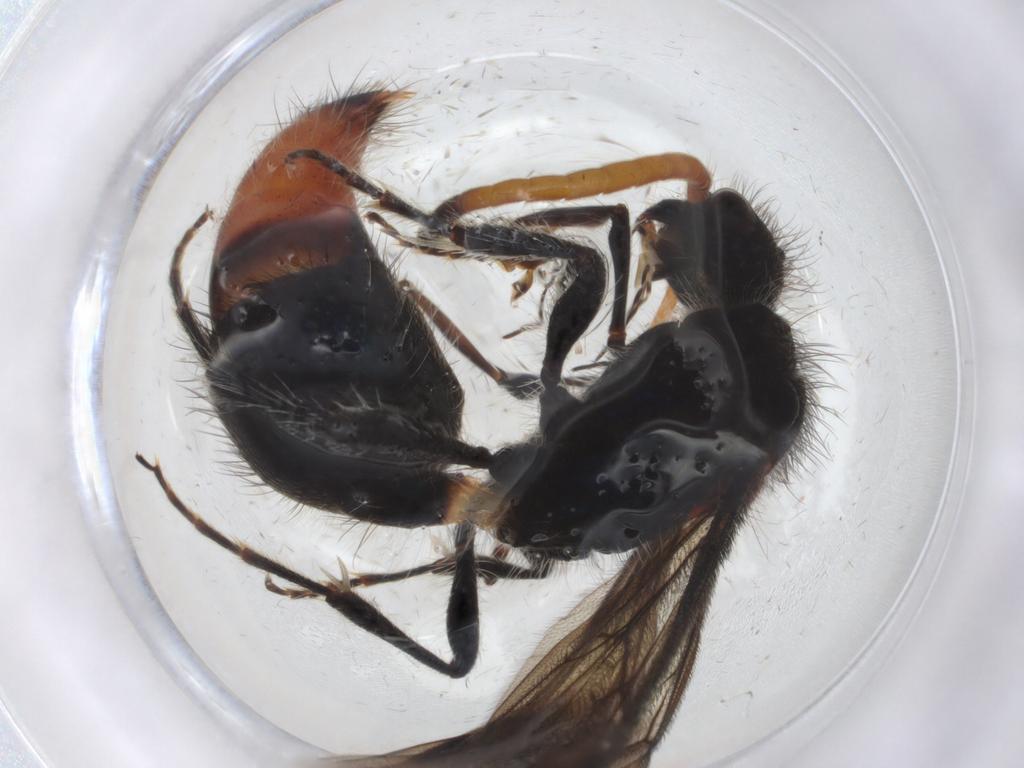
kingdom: Animalia
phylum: Arthropoda
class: Insecta
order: Hymenoptera
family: Mutillidae
